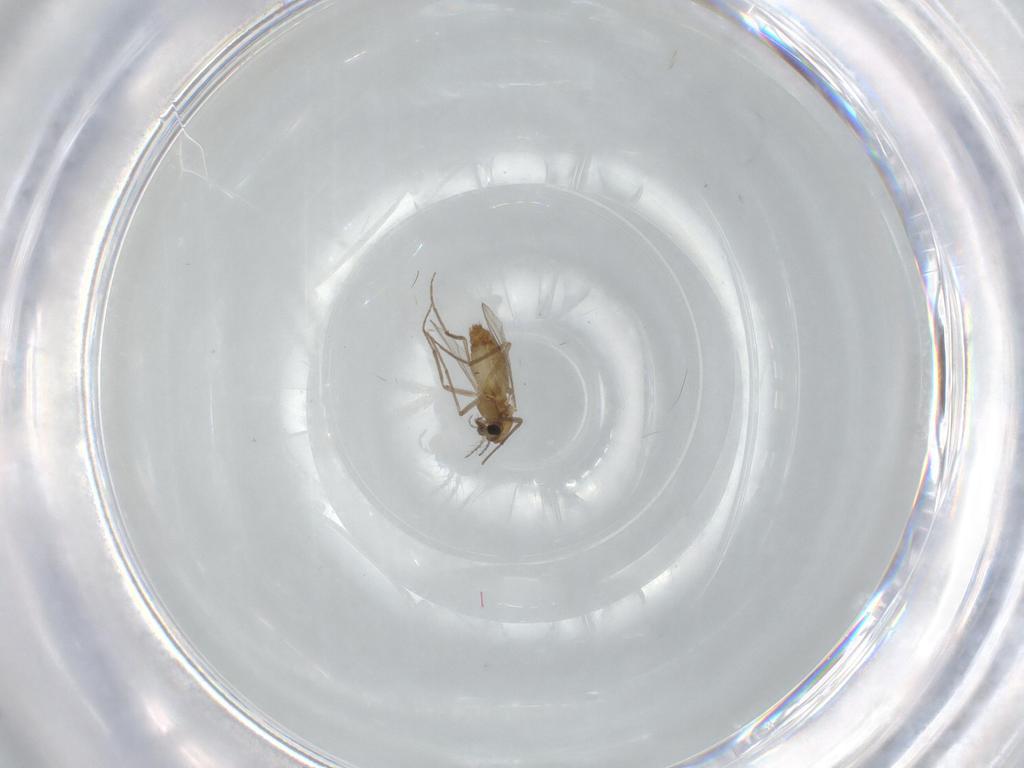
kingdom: Animalia
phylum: Arthropoda
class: Insecta
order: Diptera
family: Chironomidae
